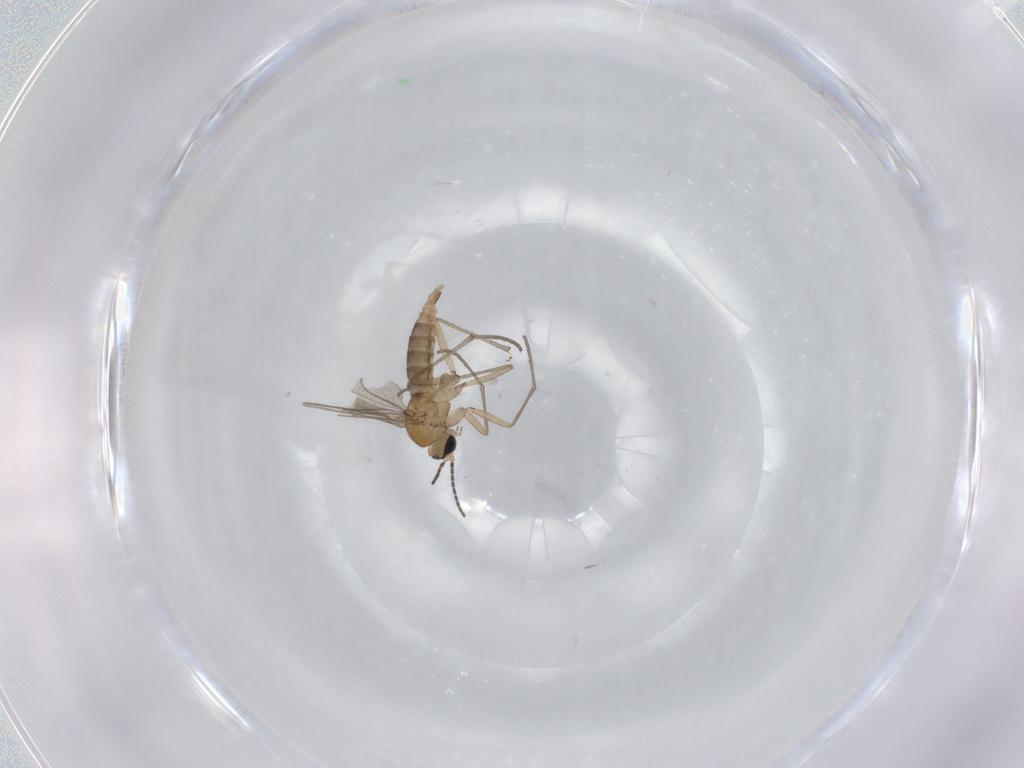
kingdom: Animalia
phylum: Arthropoda
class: Insecta
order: Diptera
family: Sciaridae
